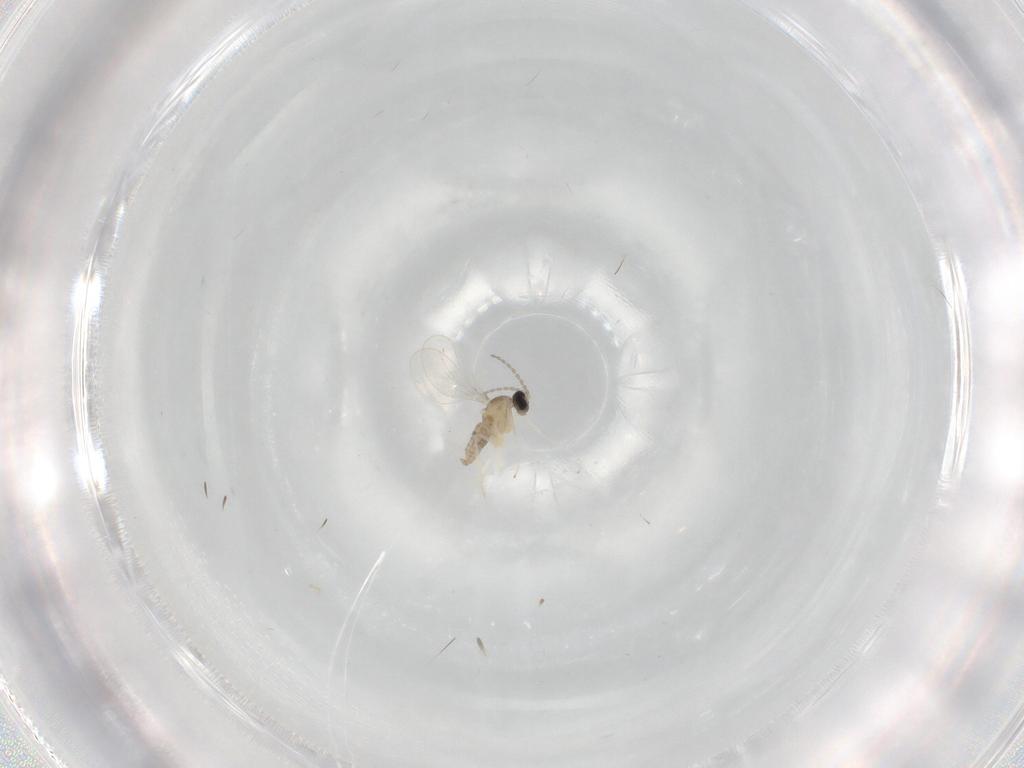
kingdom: Animalia
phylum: Arthropoda
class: Insecta
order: Diptera
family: Cecidomyiidae
